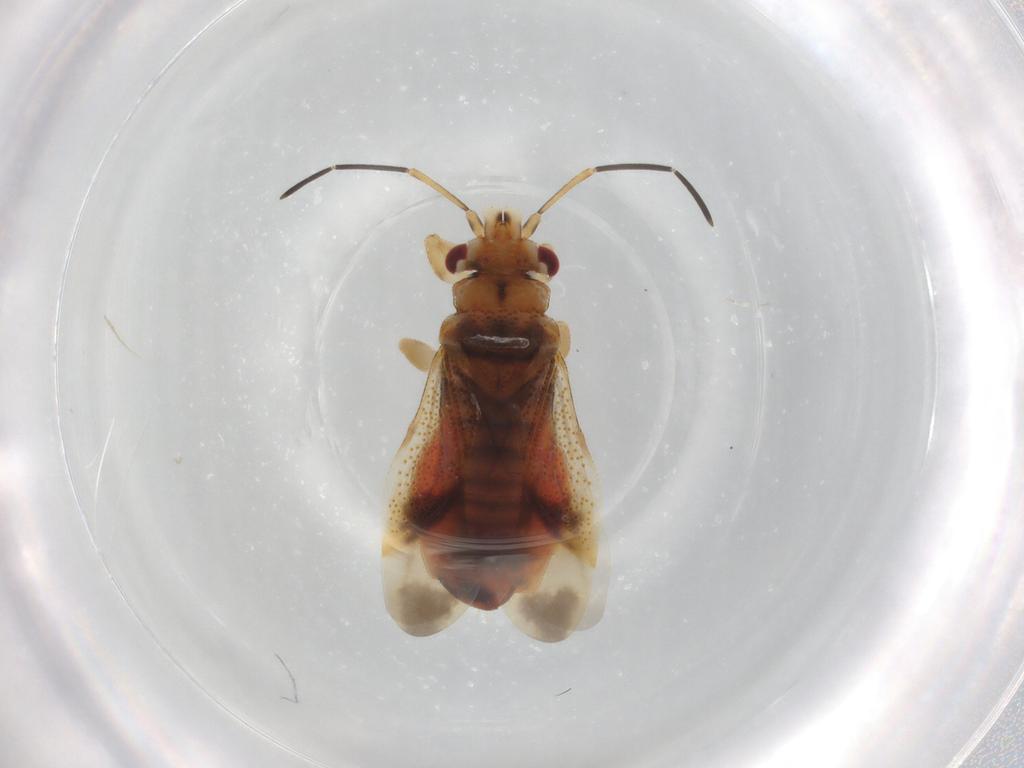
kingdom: Animalia
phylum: Arthropoda
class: Insecta
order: Hemiptera
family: Thaumastocoridae
